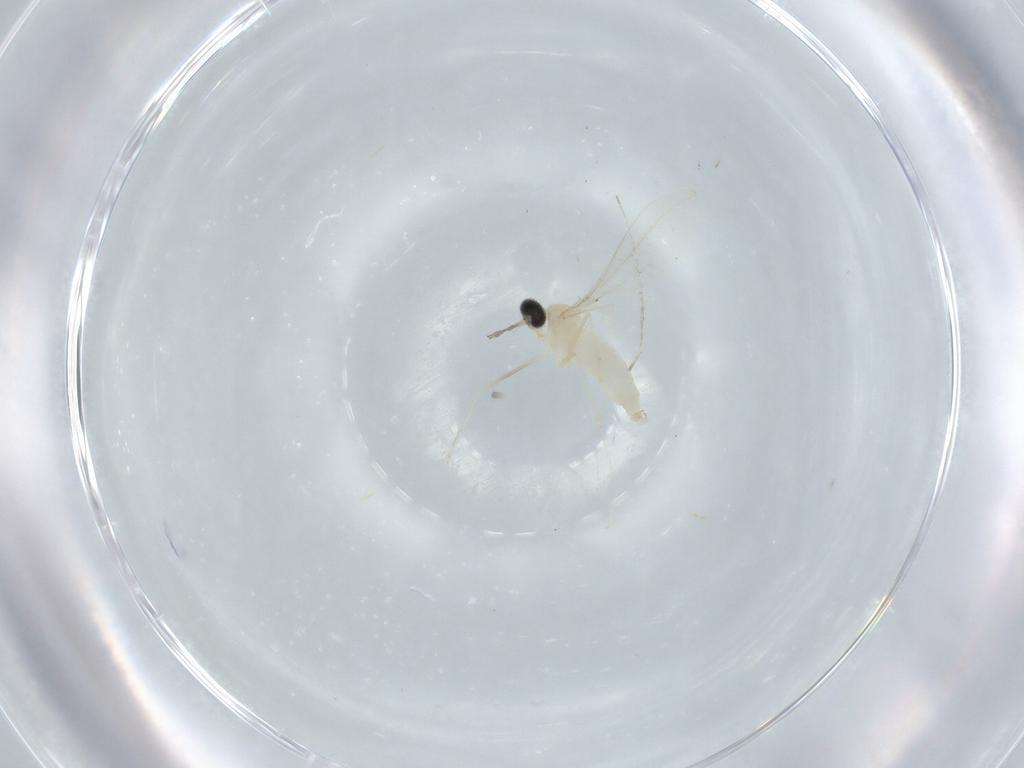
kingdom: Animalia
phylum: Arthropoda
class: Insecta
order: Diptera
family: Cecidomyiidae
